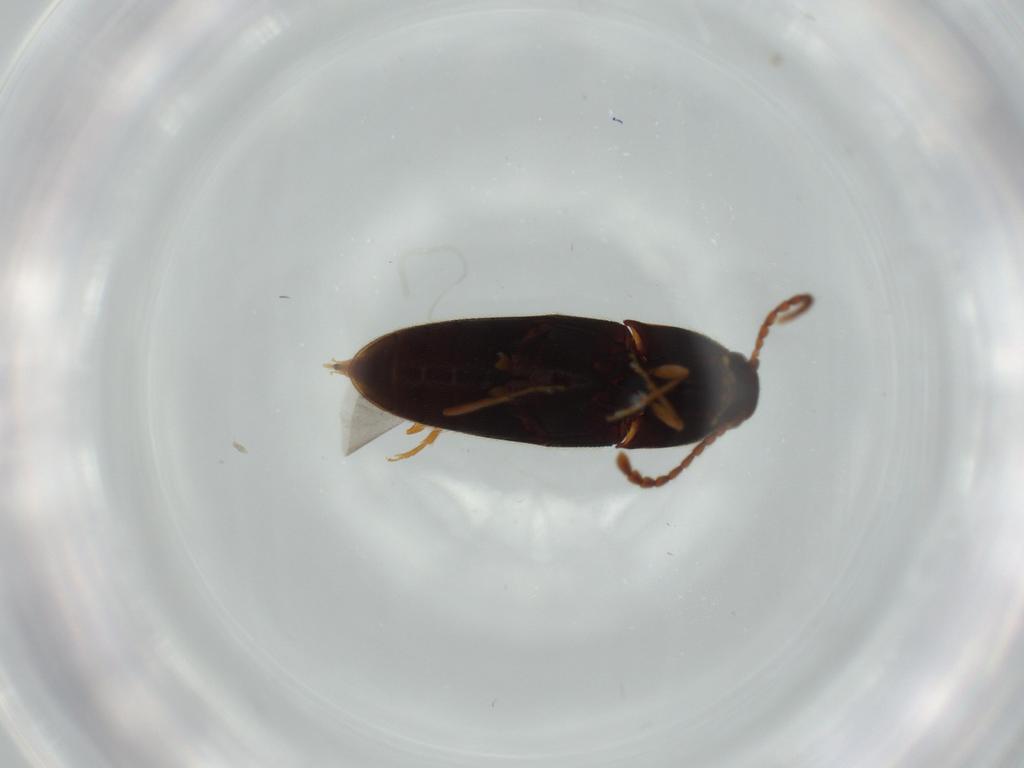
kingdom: Animalia
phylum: Arthropoda
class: Insecta
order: Coleoptera
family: Elateridae
